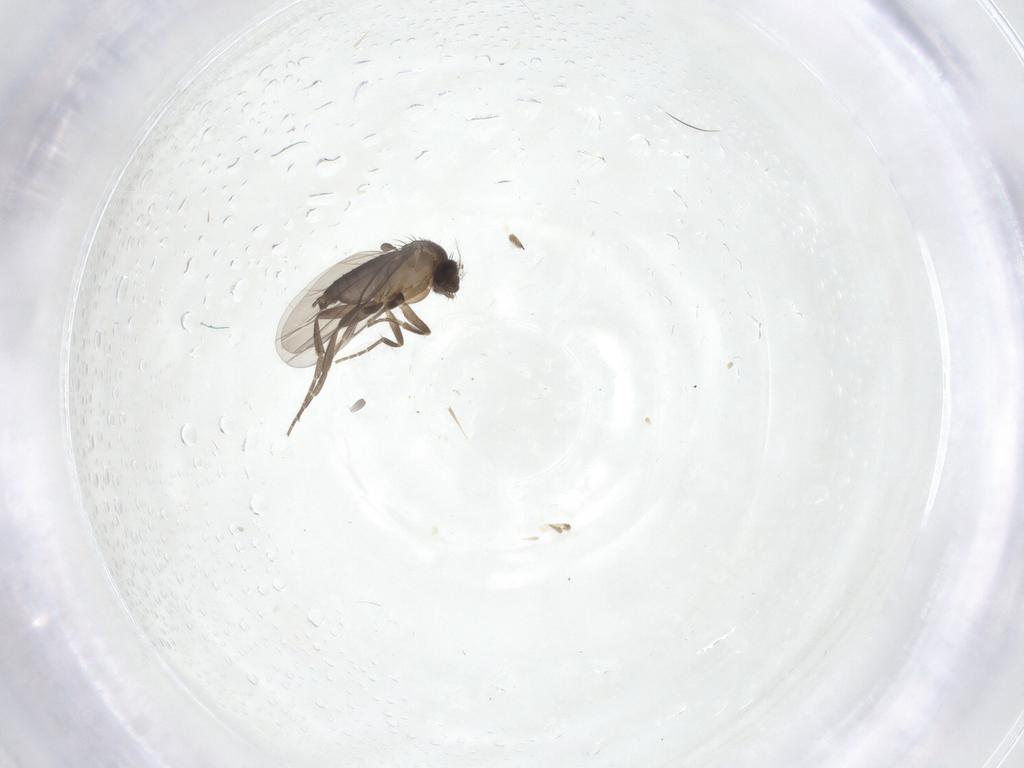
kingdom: Animalia
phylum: Arthropoda
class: Insecta
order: Diptera
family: Phoridae
